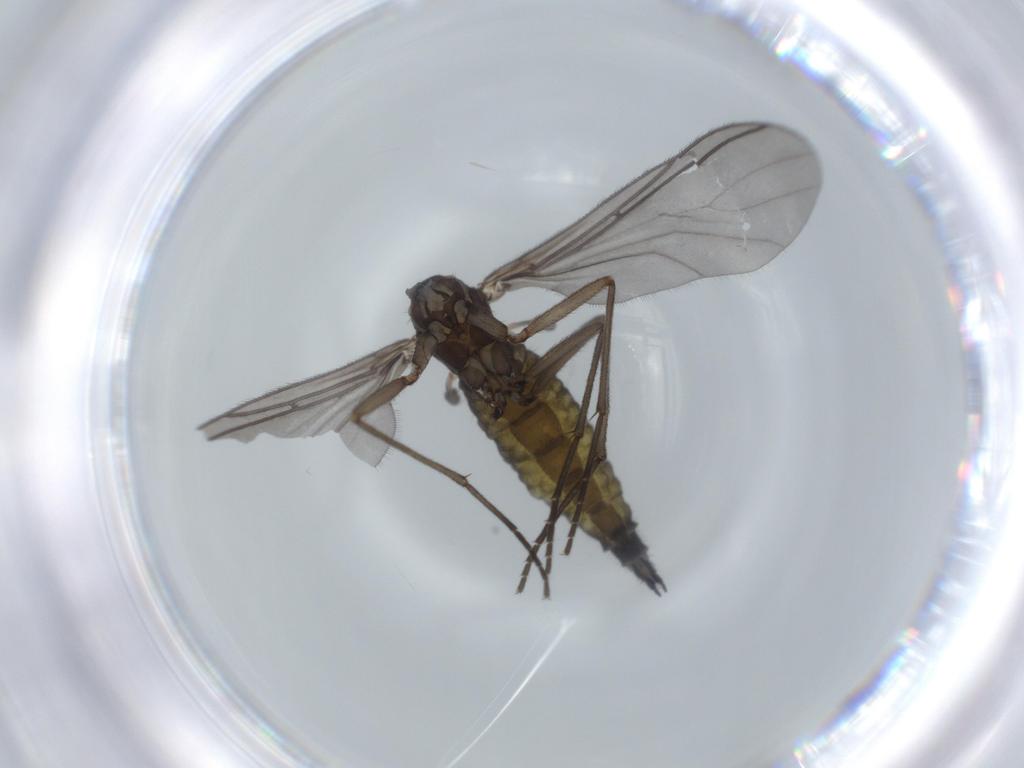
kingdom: Animalia
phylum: Arthropoda
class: Insecta
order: Diptera
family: Sciaridae
